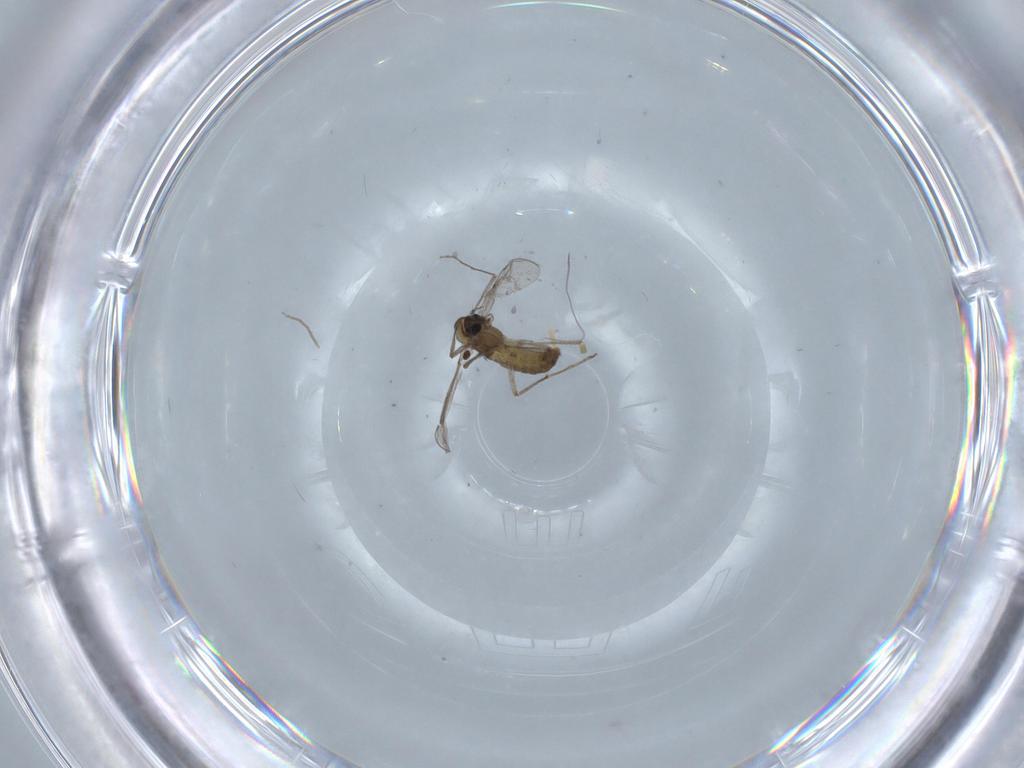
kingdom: Animalia
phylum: Arthropoda
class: Insecta
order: Diptera
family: Chironomidae
